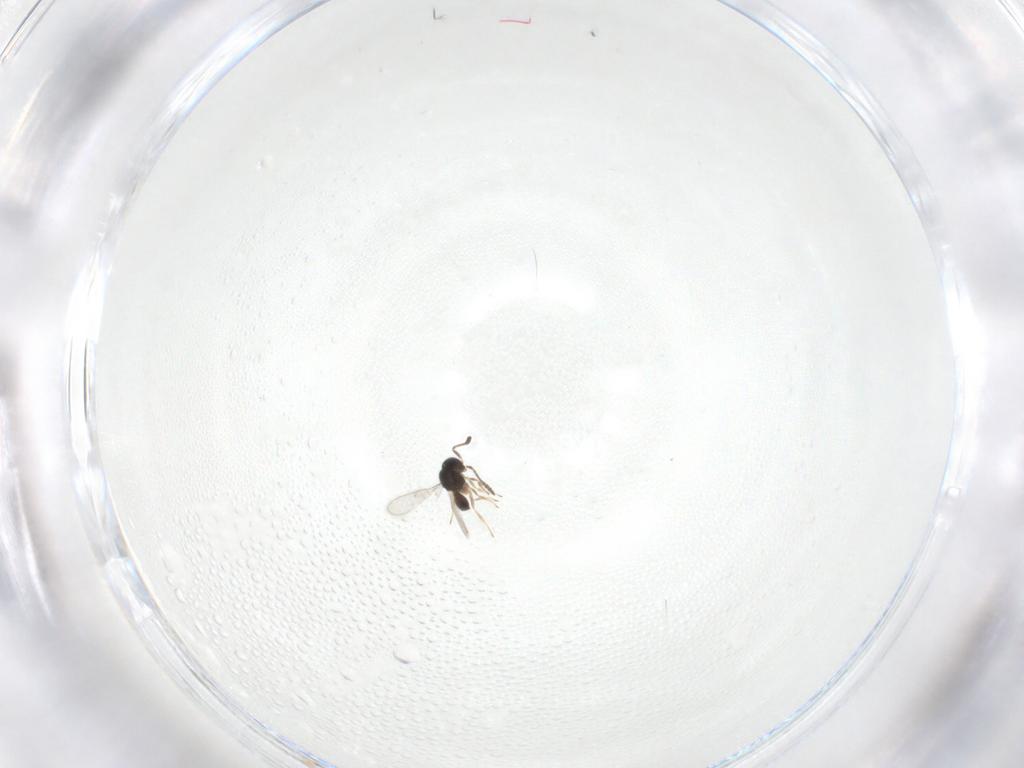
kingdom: Animalia
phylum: Arthropoda
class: Insecta
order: Hymenoptera
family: Scelionidae
